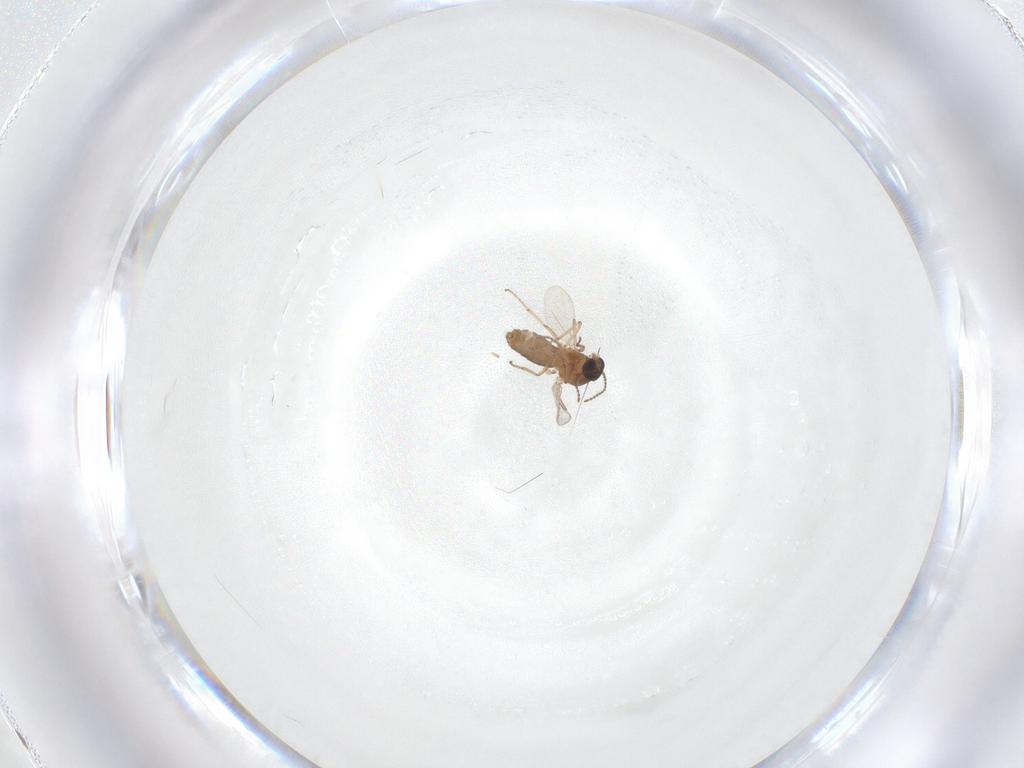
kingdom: Animalia
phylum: Arthropoda
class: Insecta
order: Diptera
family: Ceratopogonidae
